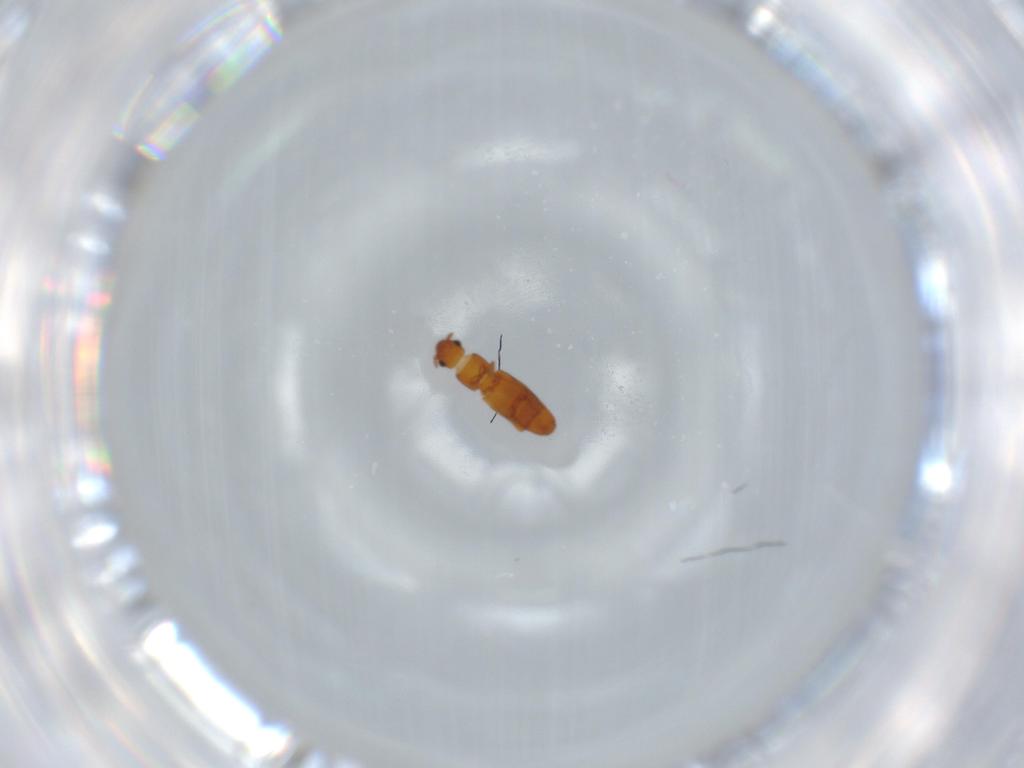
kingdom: Animalia
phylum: Arthropoda
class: Insecta
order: Coleoptera
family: Smicripidae
